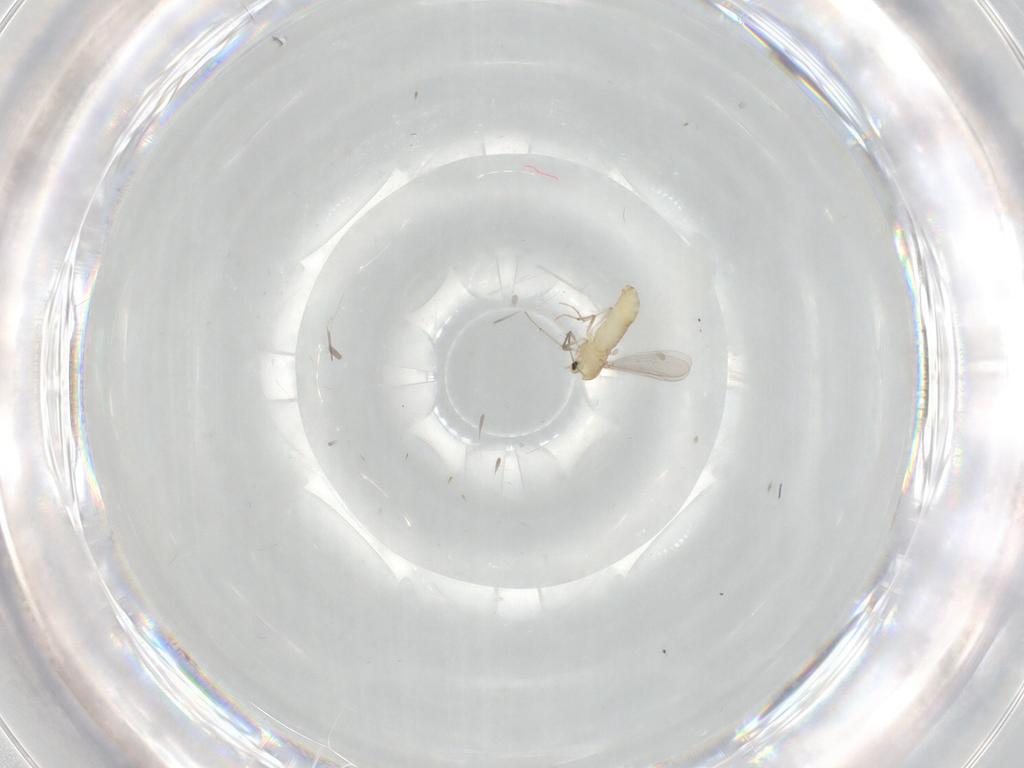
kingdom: Animalia
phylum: Arthropoda
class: Insecta
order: Diptera
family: Chironomidae
